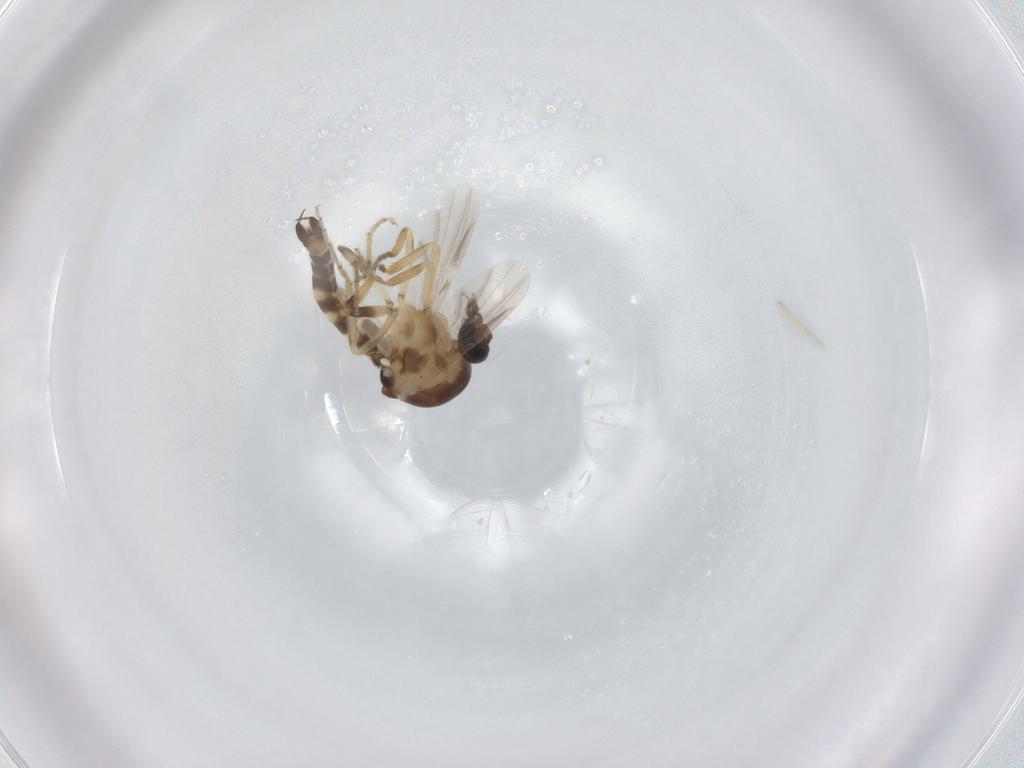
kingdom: Animalia
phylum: Arthropoda
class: Insecta
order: Diptera
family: Ceratopogonidae
